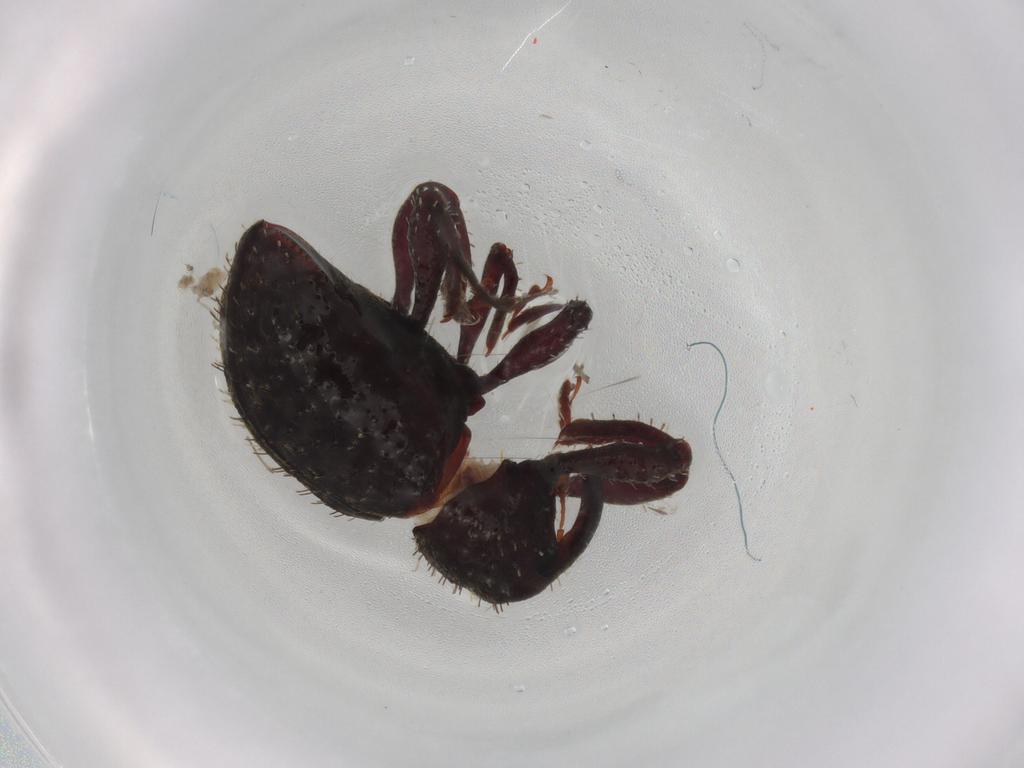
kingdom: Animalia
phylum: Arthropoda
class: Insecta
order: Coleoptera
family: Curculionidae
